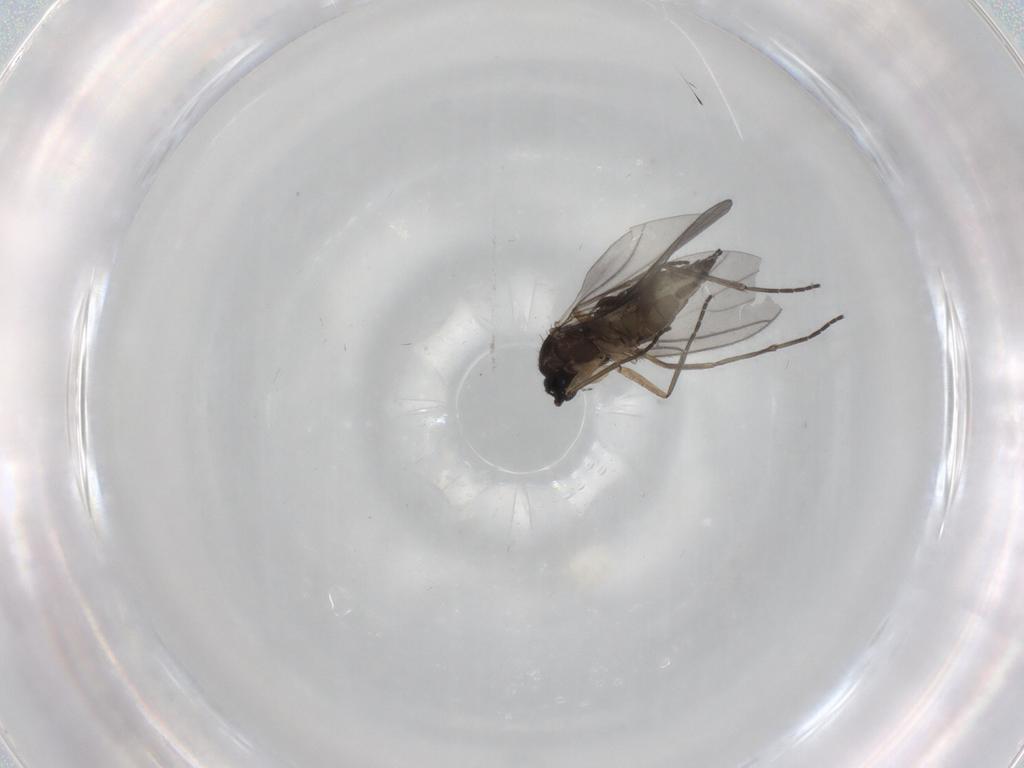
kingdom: Animalia
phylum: Arthropoda
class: Insecta
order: Diptera
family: Sciaridae
